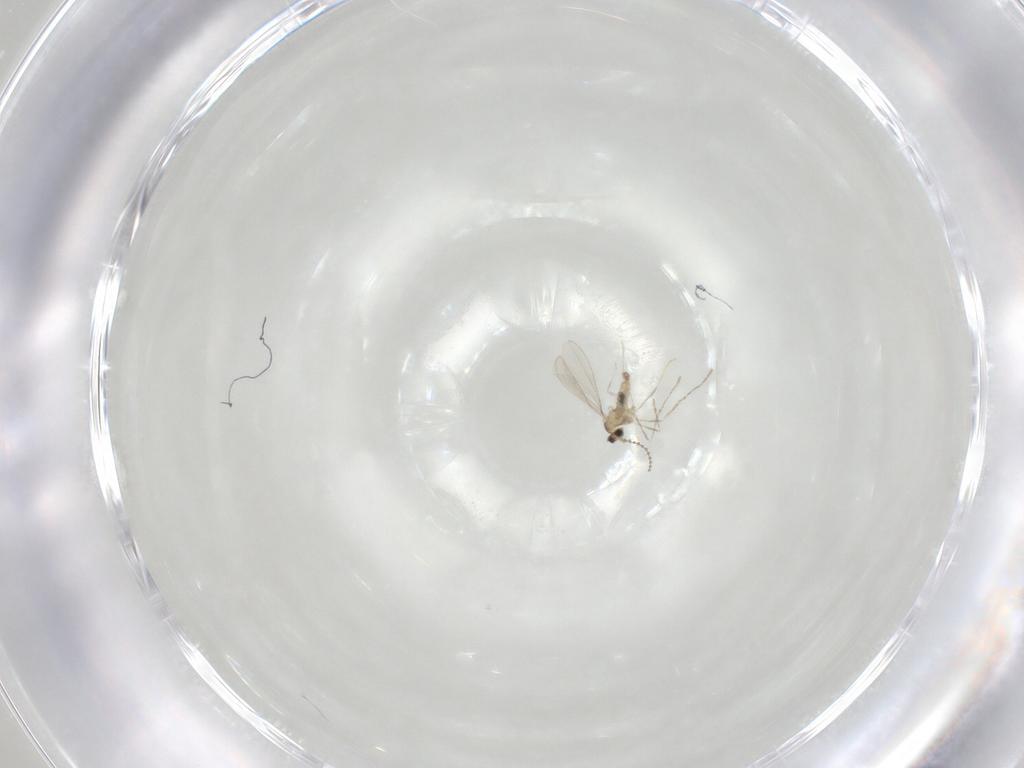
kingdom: Animalia
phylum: Arthropoda
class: Insecta
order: Diptera
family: Cecidomyiidae
